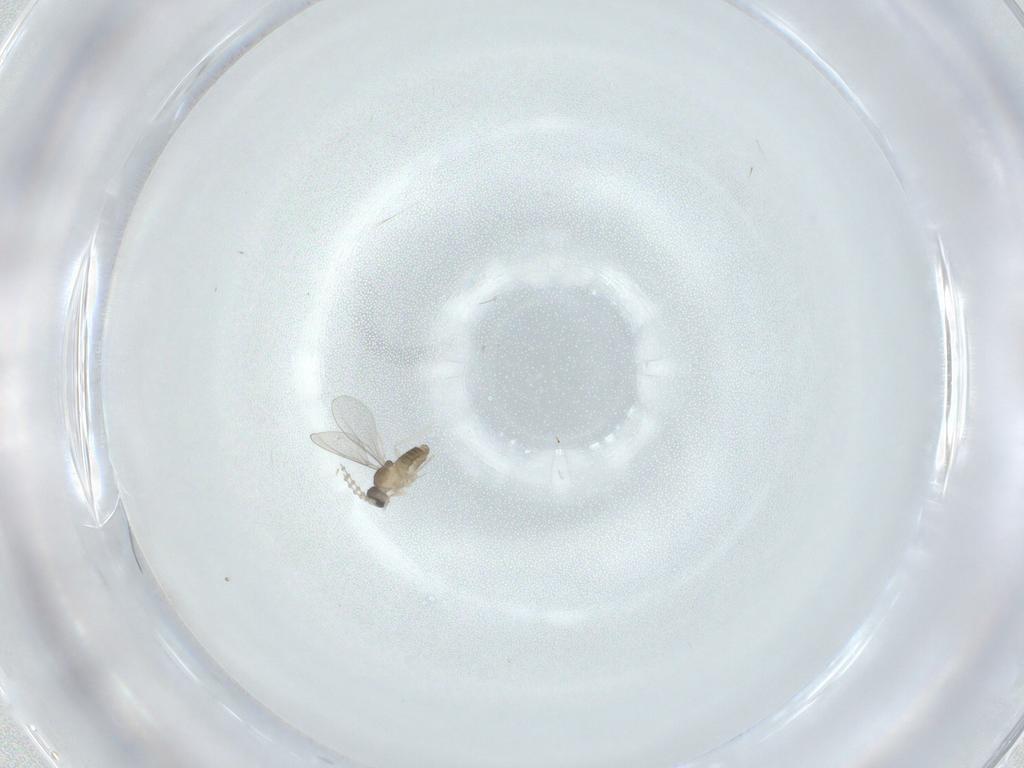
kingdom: Animalia
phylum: Arthropoda
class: Insecta
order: Diptera
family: Cecidomyiidae
